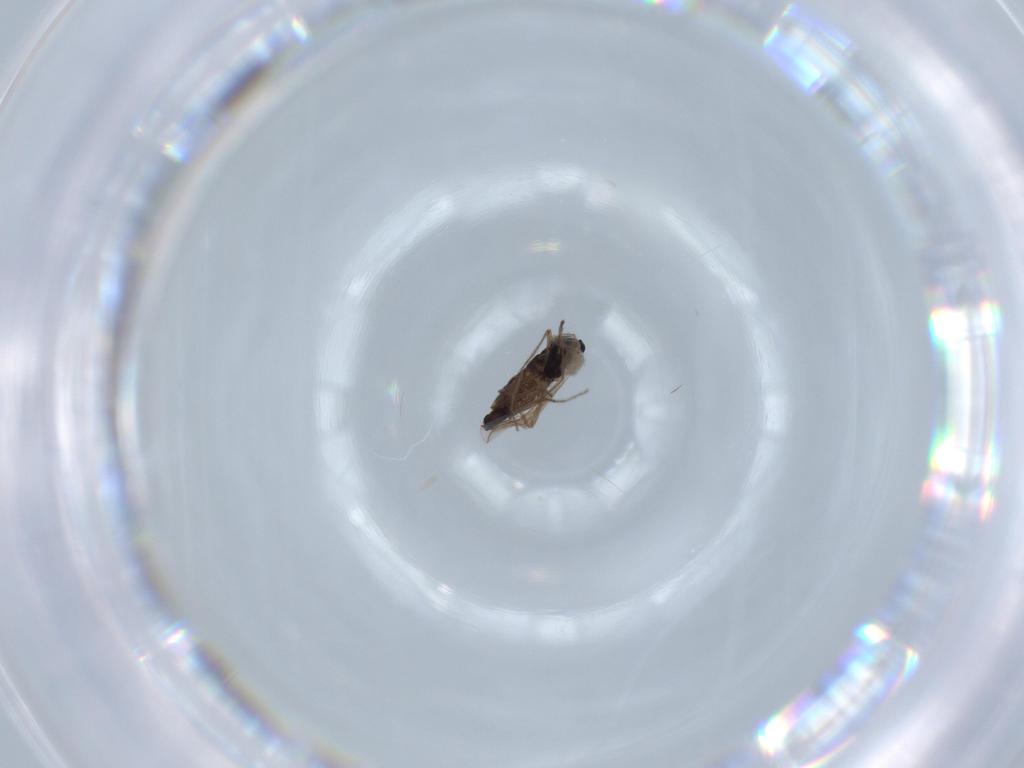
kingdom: Animalia
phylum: Arthropoda
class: Insecta
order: Diptera
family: Chironomidae
